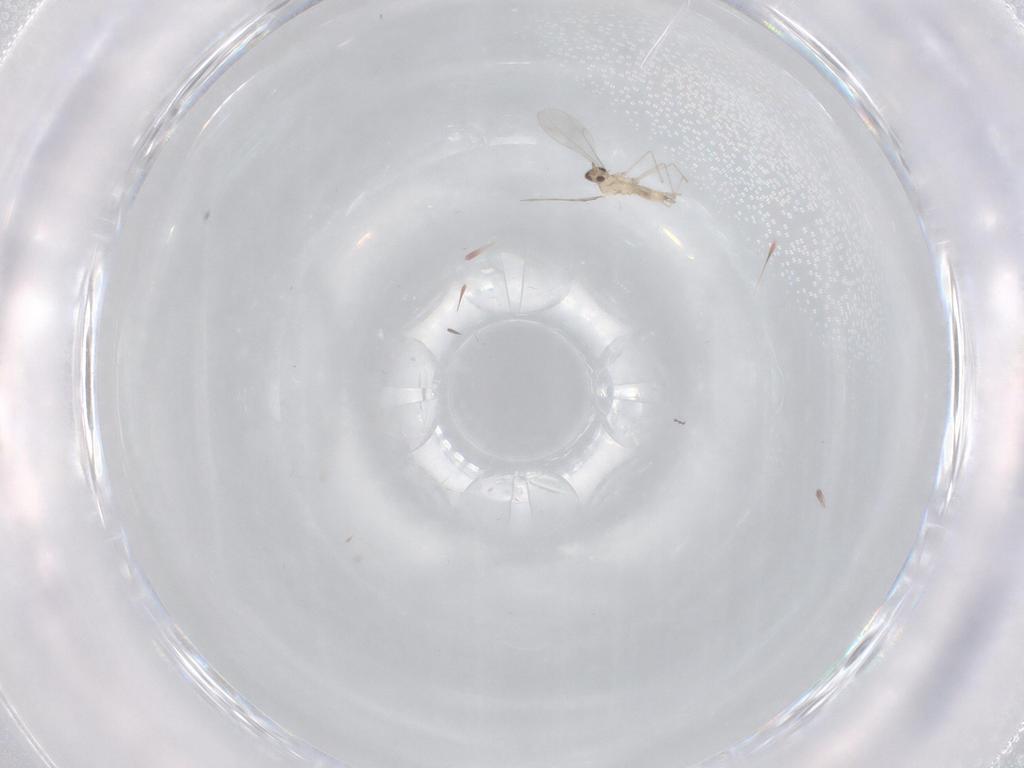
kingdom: Animalia
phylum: Arthropoda
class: Insecta
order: Diptera
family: Cecidomyiidae
